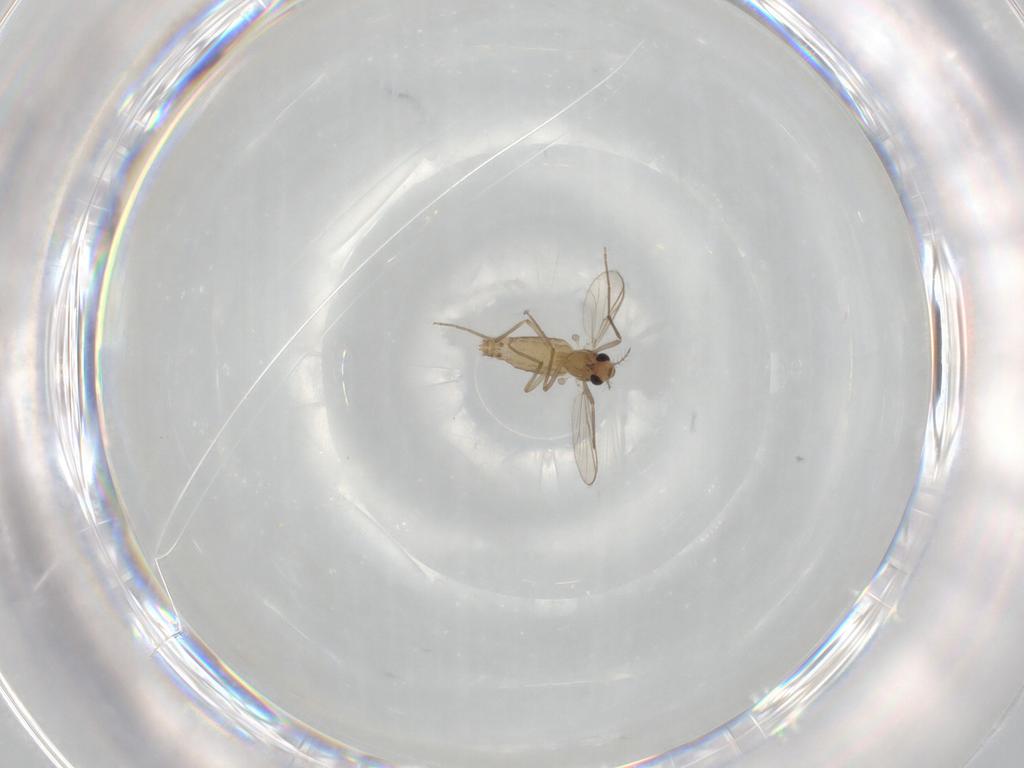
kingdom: Animalia
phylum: Arthropoda
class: Insecta
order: Diptera
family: Chironomidae
